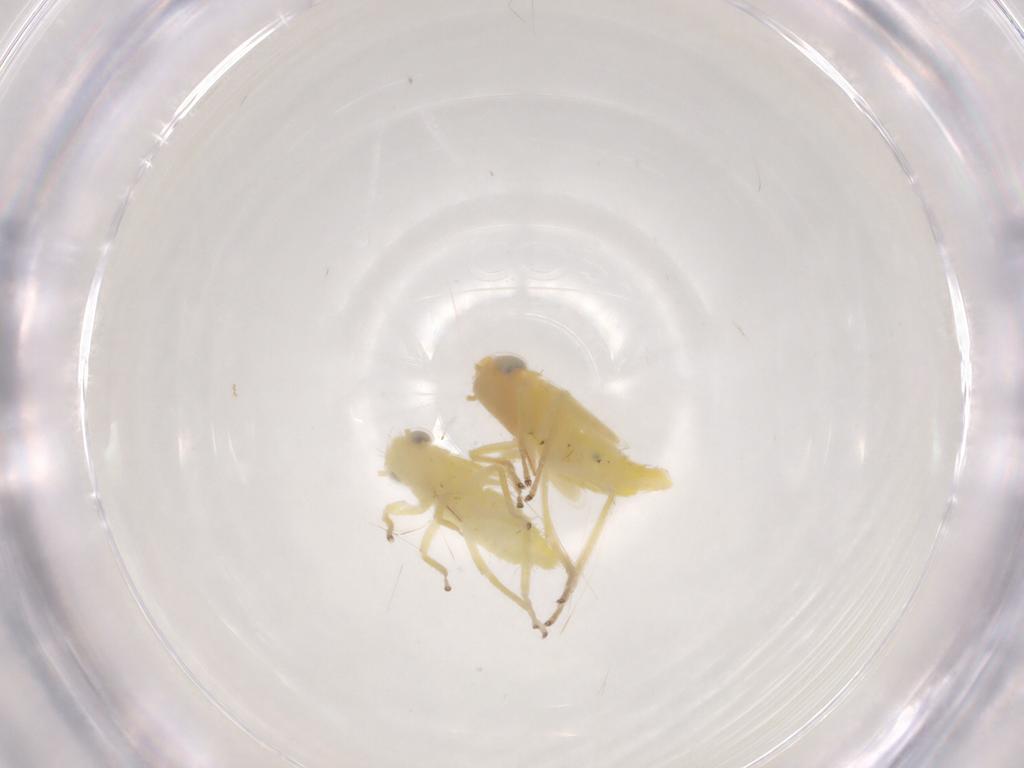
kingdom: Animalia
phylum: Arthropoda
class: Insecta
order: Hemiptera
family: Cicadellidae
